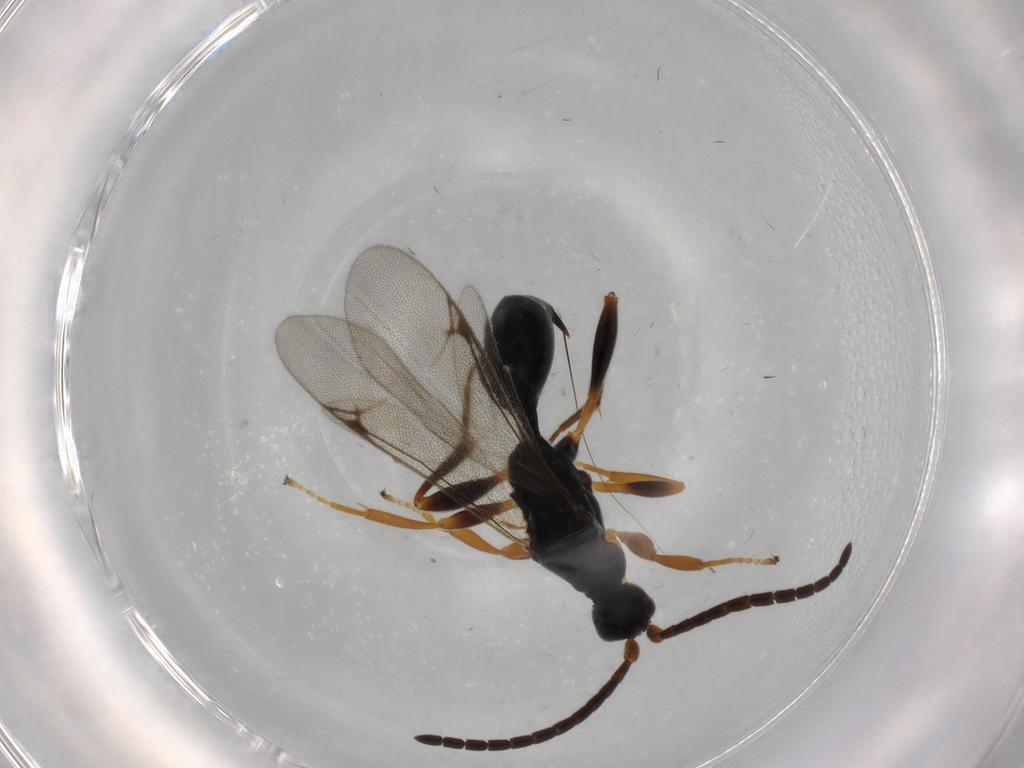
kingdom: Animalia
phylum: Arthropoda
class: Insecta
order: Hymenoptera
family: Proctotrupidae
